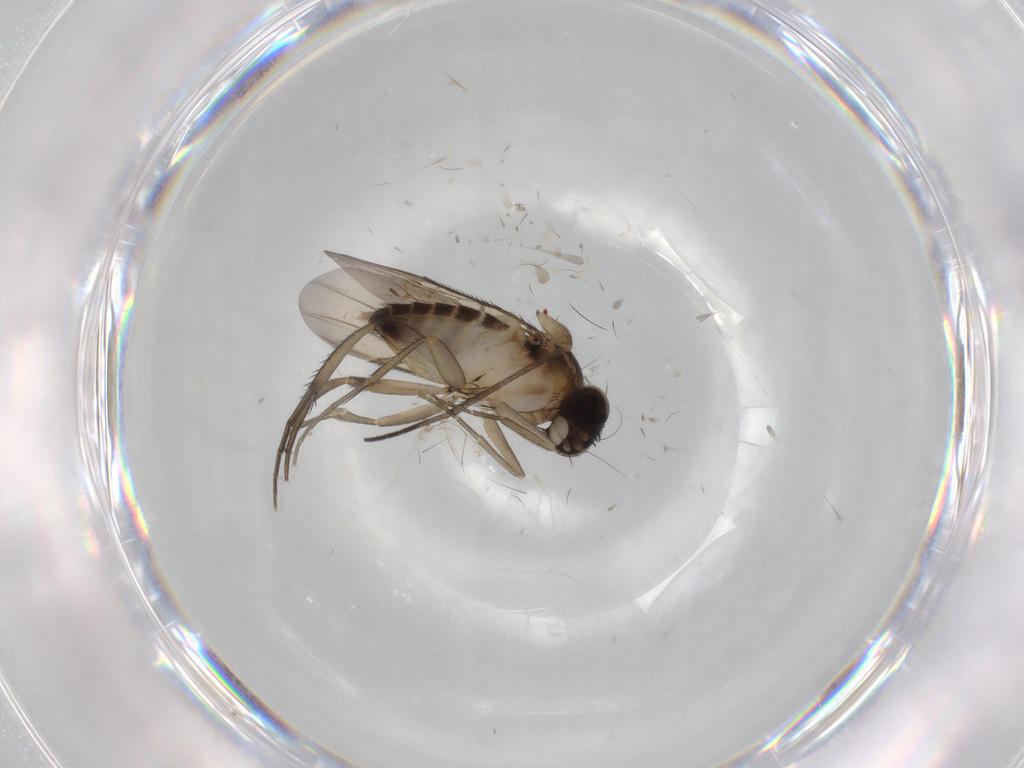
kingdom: Animalia
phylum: Arthropoda
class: Insecta
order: Diptera
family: Phoridae
